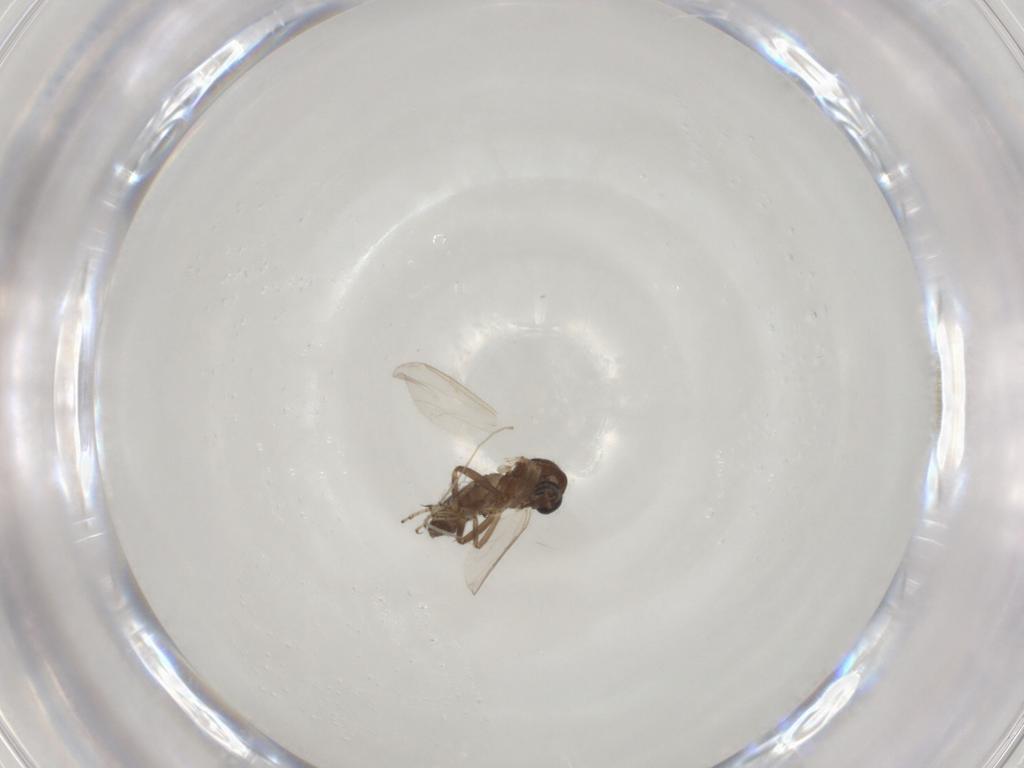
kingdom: Animalia
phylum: Arthropoda
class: Insecta
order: Diptera
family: Ceratopogonidae
